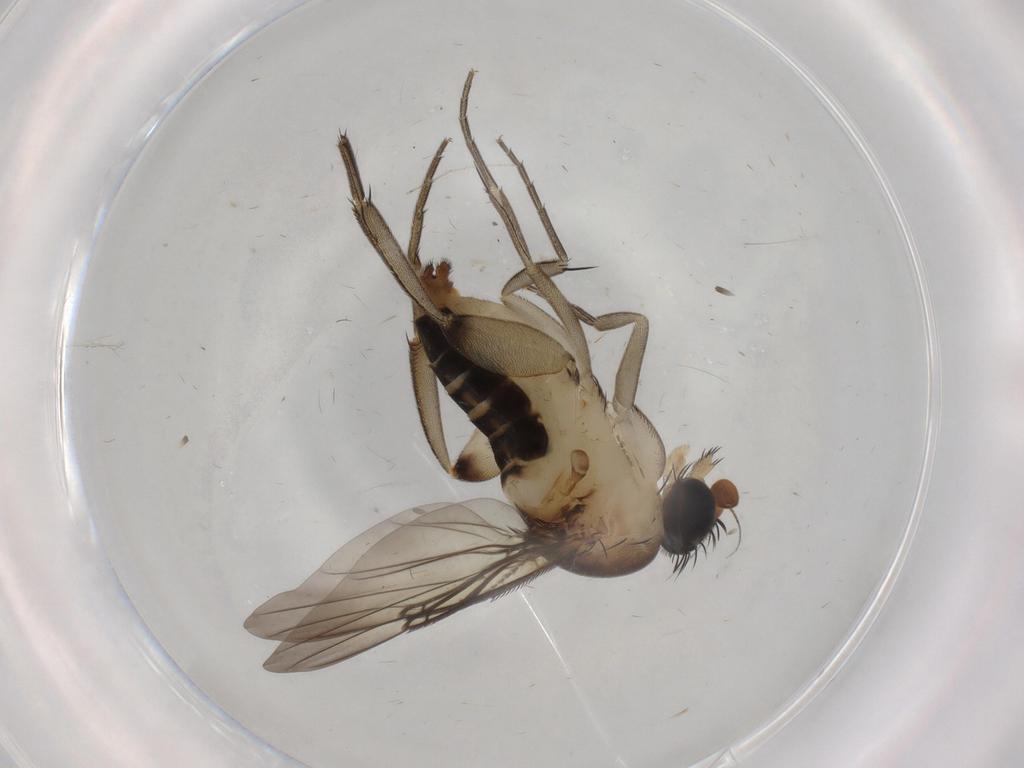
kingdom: Animalia
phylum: Arthropoda
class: Insecta
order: Diptera
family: Phoridae
